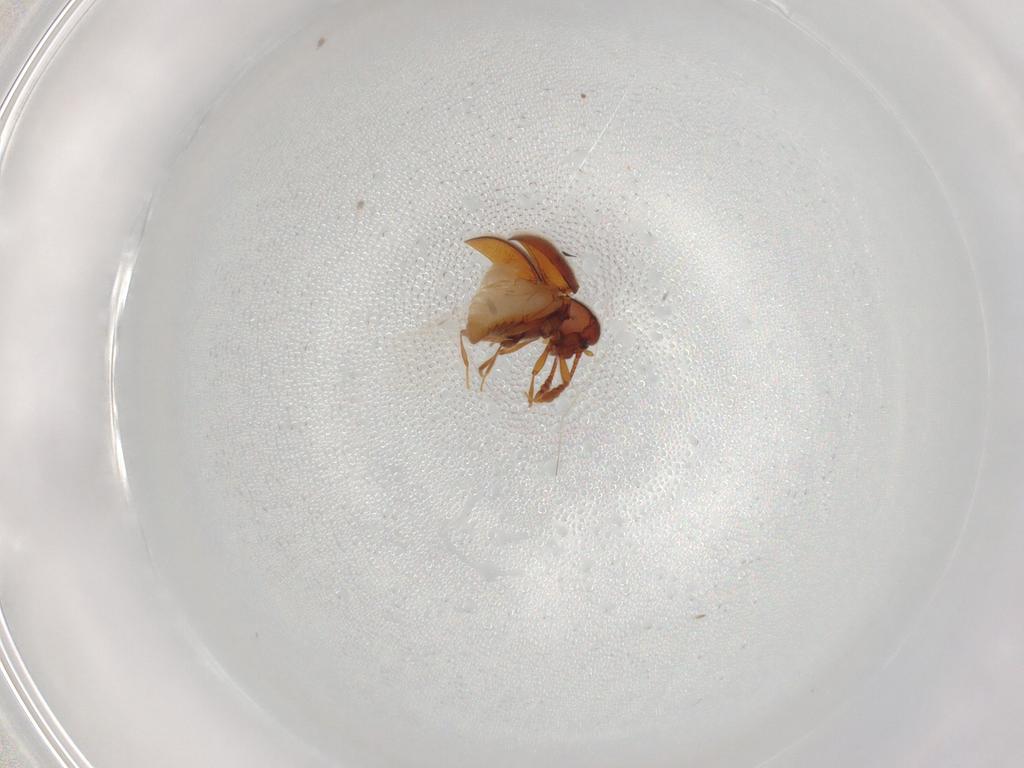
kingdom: Animalia
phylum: Arthropoda
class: Insecta
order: Coleoptera
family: Staphylinidae
